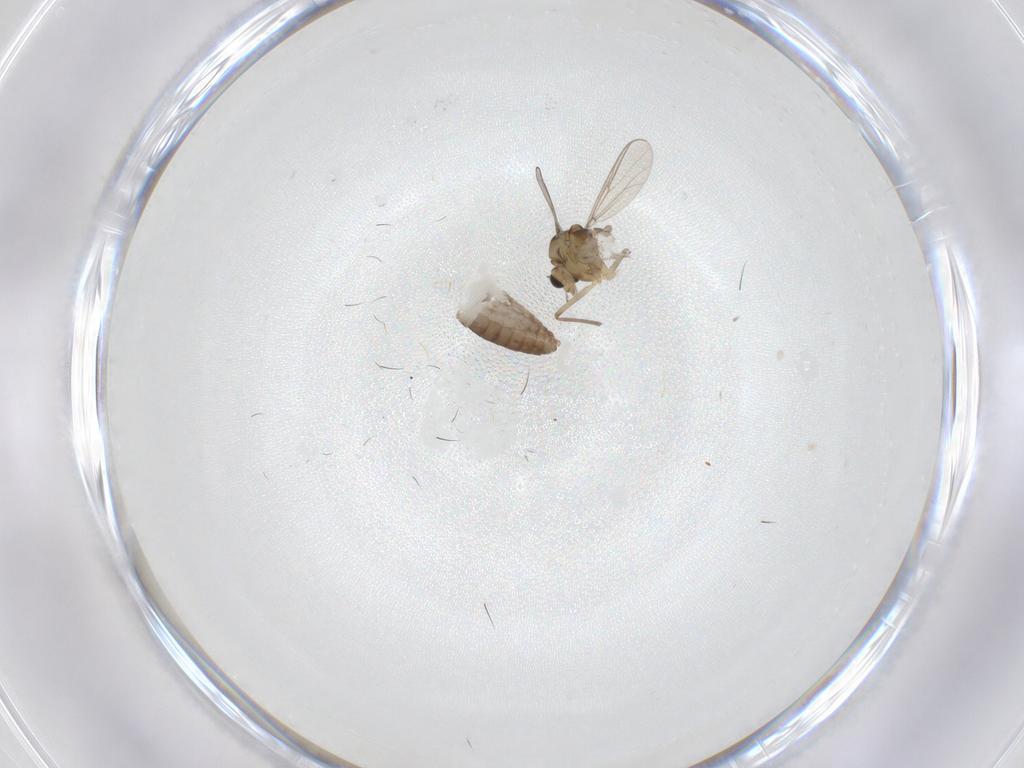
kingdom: Animalia
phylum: Arthropoda
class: Insecta
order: Diptera
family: Chironomidae
